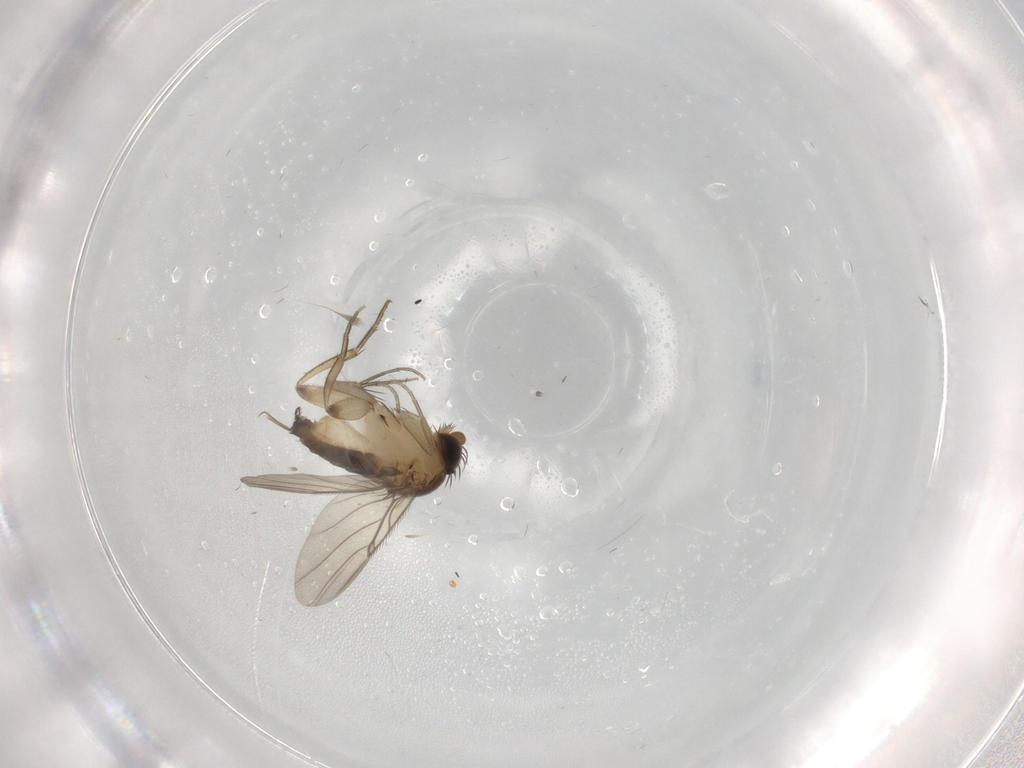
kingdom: Animalia
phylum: Arthropoda
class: Insecta
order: Diptera
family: Phoridae
